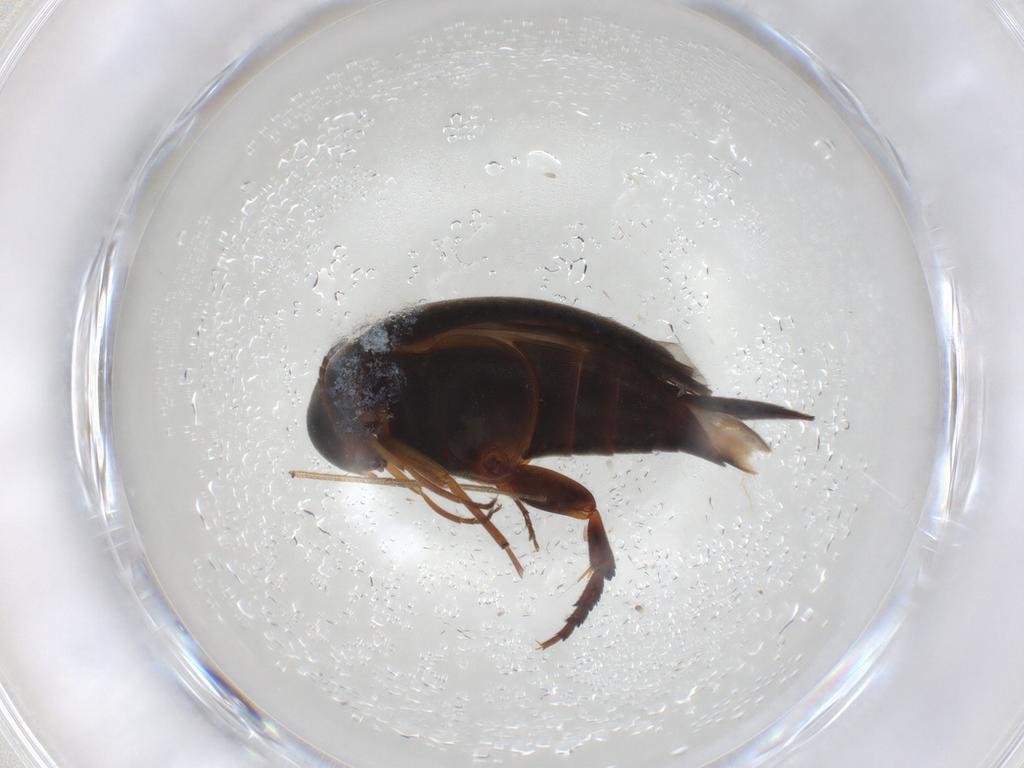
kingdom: Animalia
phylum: Arthropoda
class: Insecta
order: Coleoptera
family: Mordellidae
